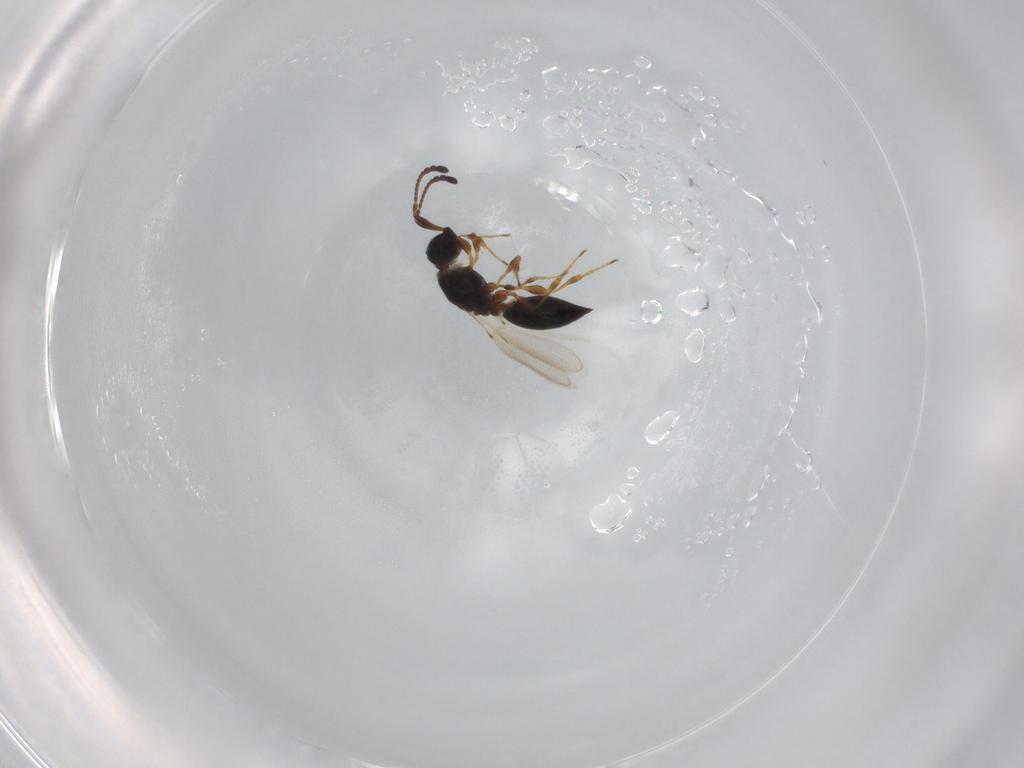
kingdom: Animalia
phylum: Arthropoda
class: Insecta
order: Hymenoptera
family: Diapriidae
